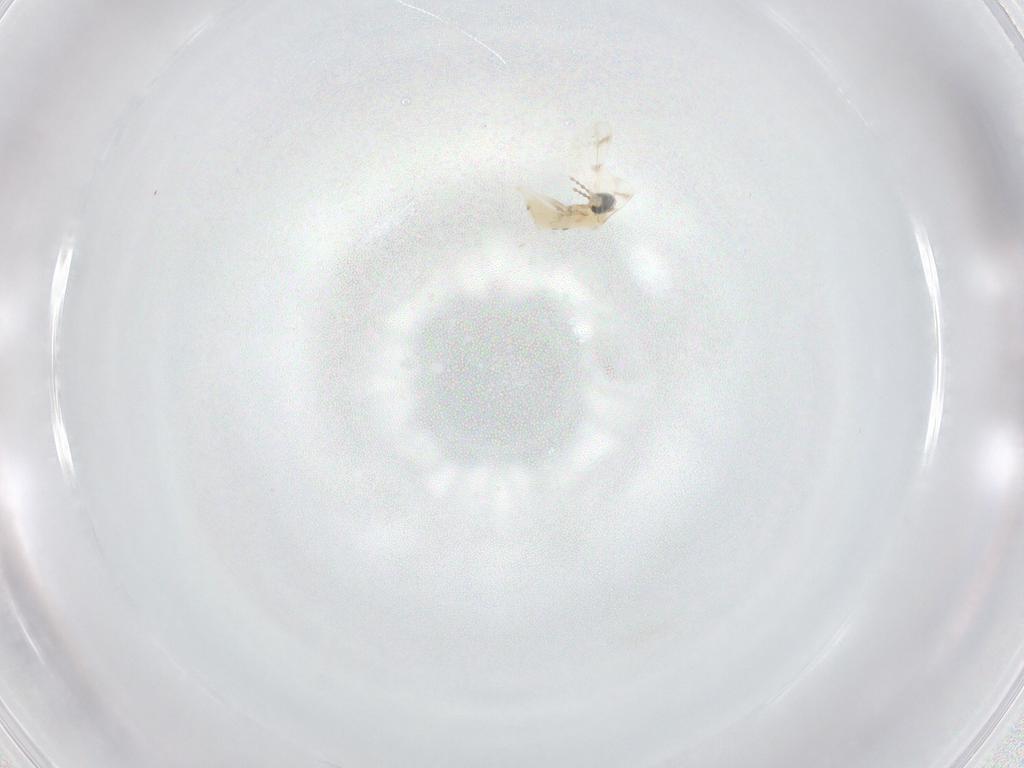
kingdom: Animalia
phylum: Arthropoda
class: Insecta
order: Diptera
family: Cecidomyiidae
